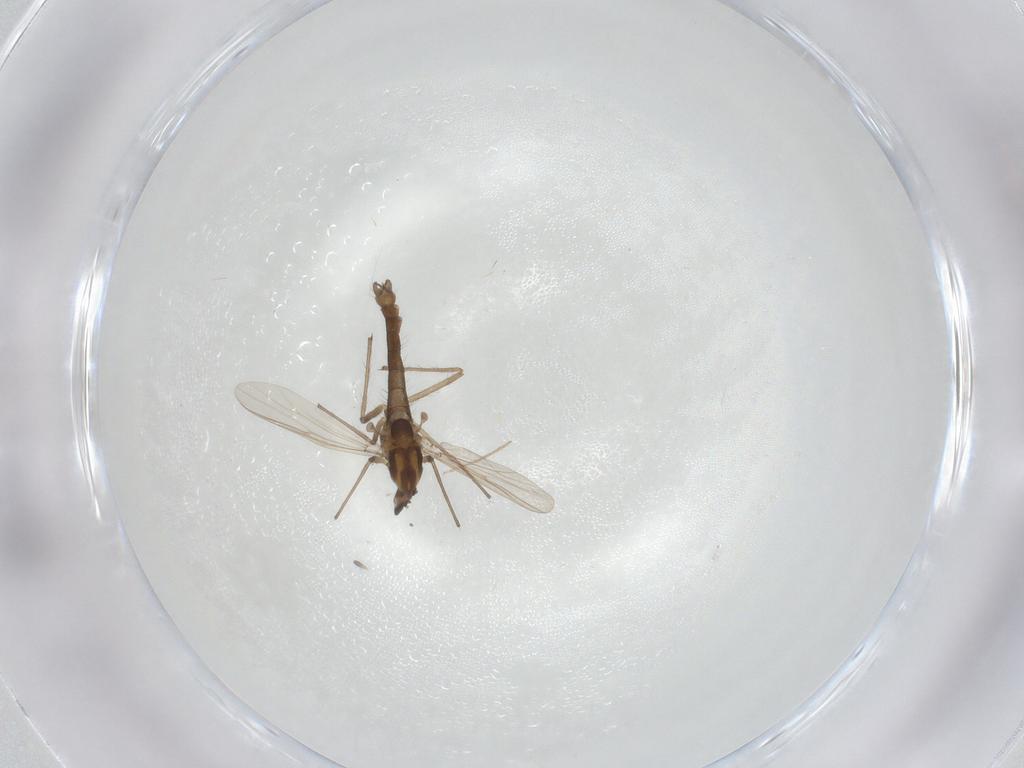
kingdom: Animalia
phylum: Arthropoda
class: Insecta
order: Diptera
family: Chironomidae
